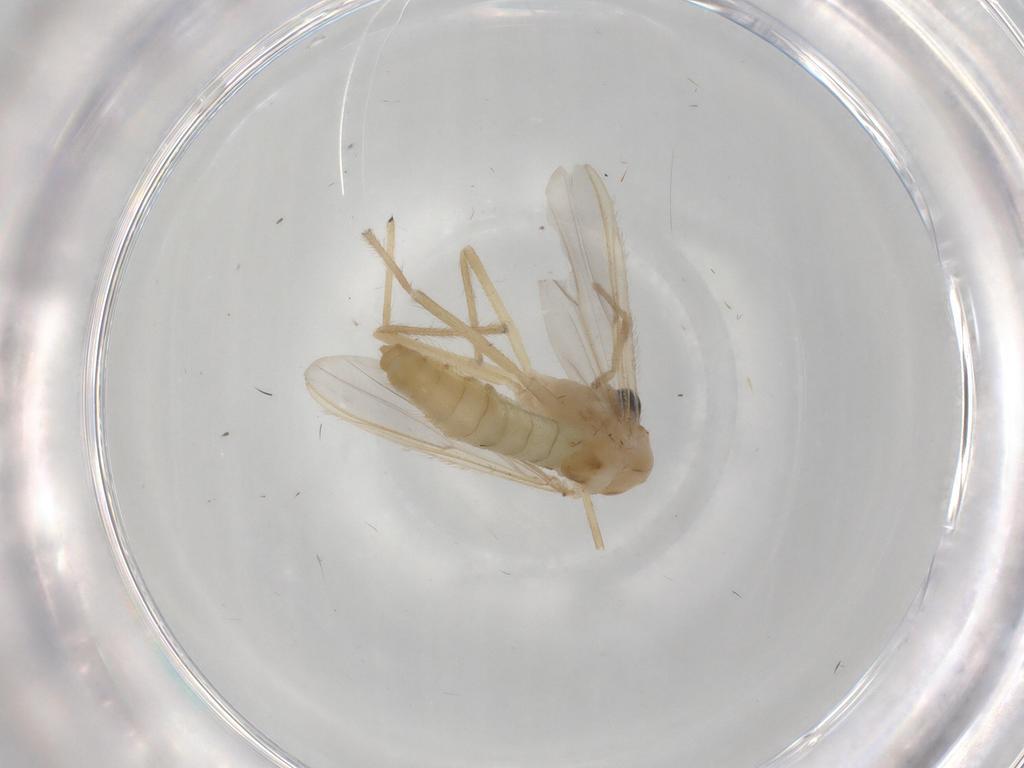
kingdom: Animalia
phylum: Arthropoda
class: Insecta
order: Diptera
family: Chironomidae
